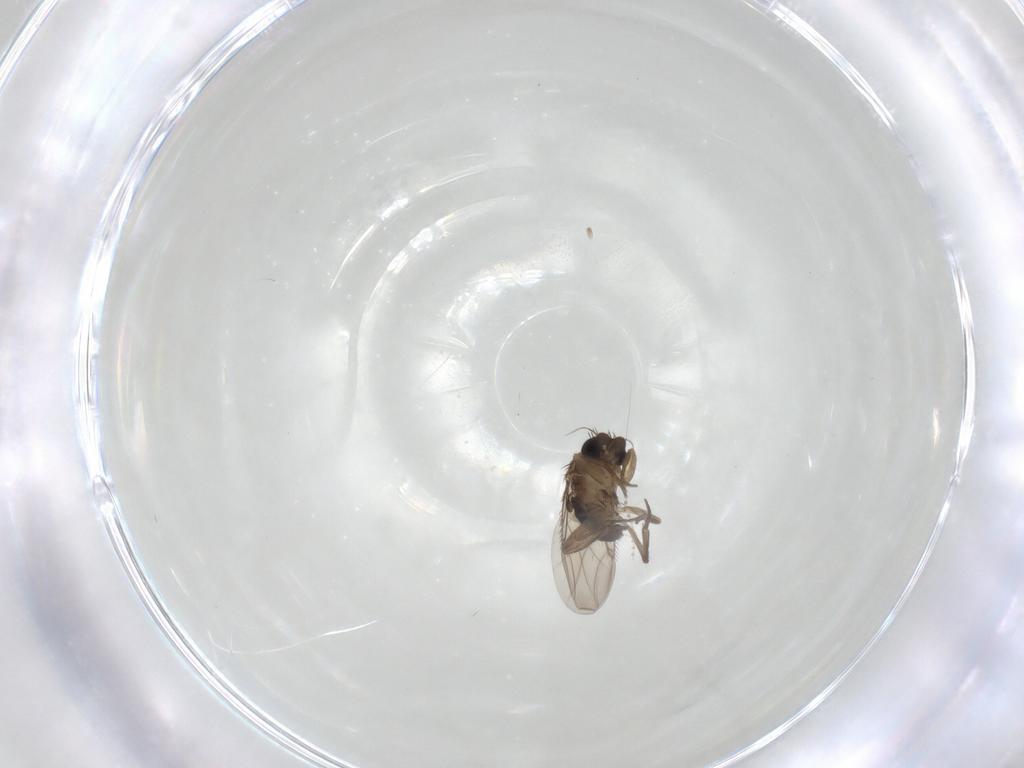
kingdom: Animalia
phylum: Arthropoda
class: Insecta
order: Diptera
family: Phoridae
